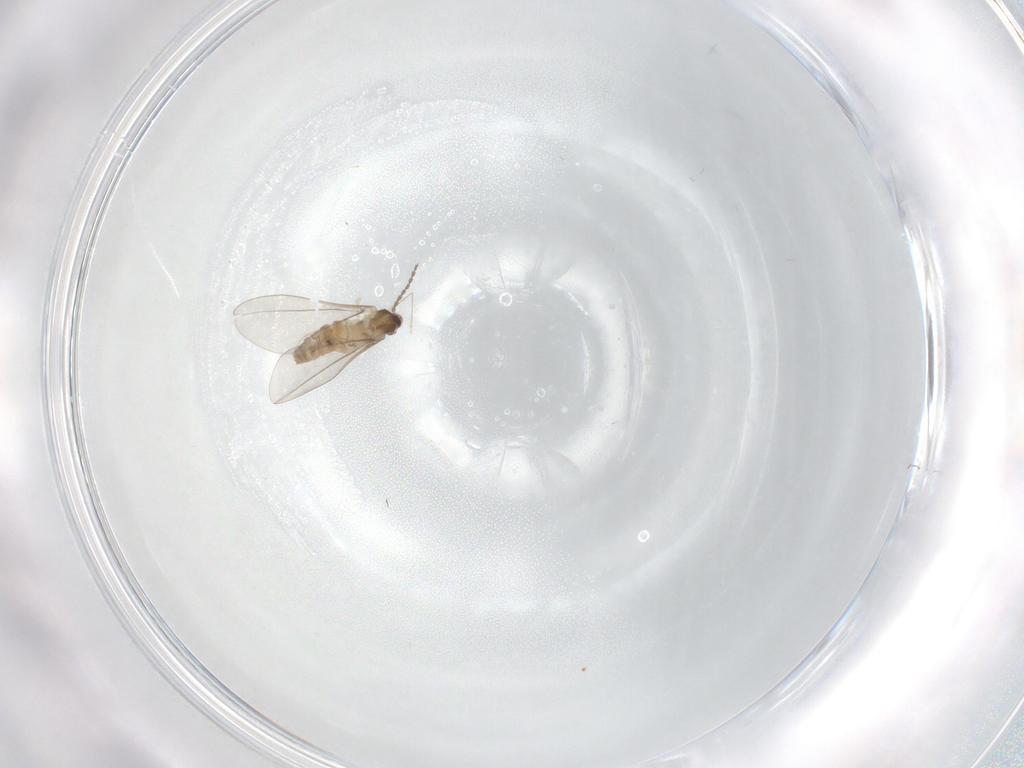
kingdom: Animalia
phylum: Arthropoda
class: Insecta
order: Diptera
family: Cecidomyiidae
